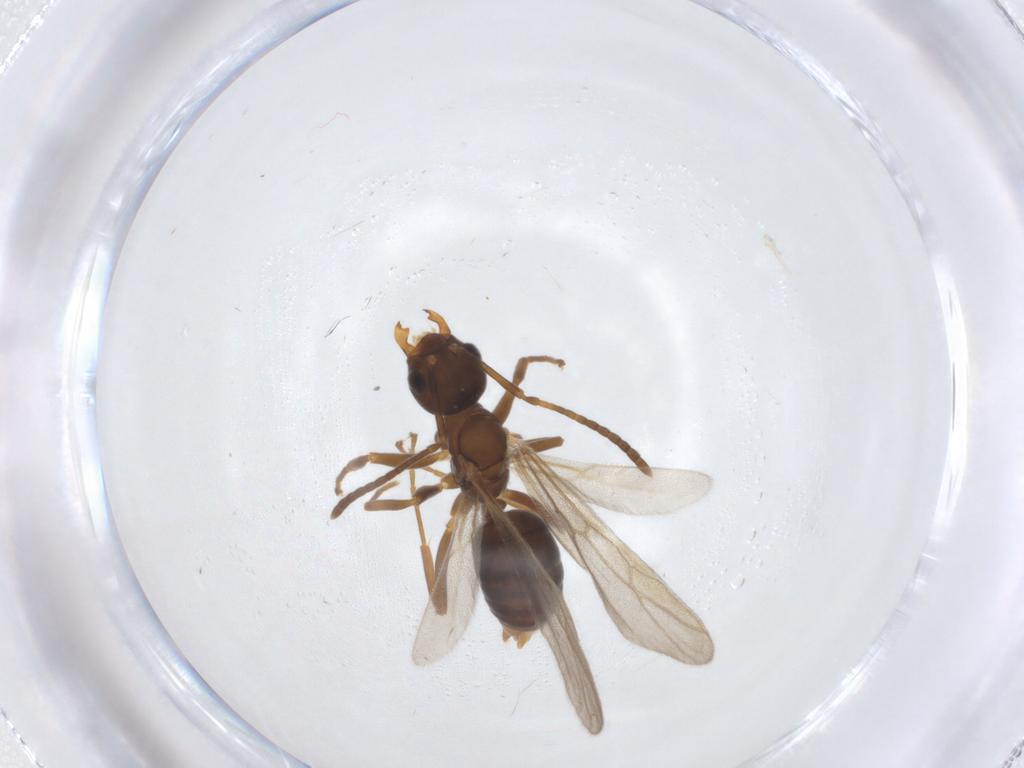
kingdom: Animalia
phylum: Arthropoda
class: Insecta
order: Hymenoptera
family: Formicidae
